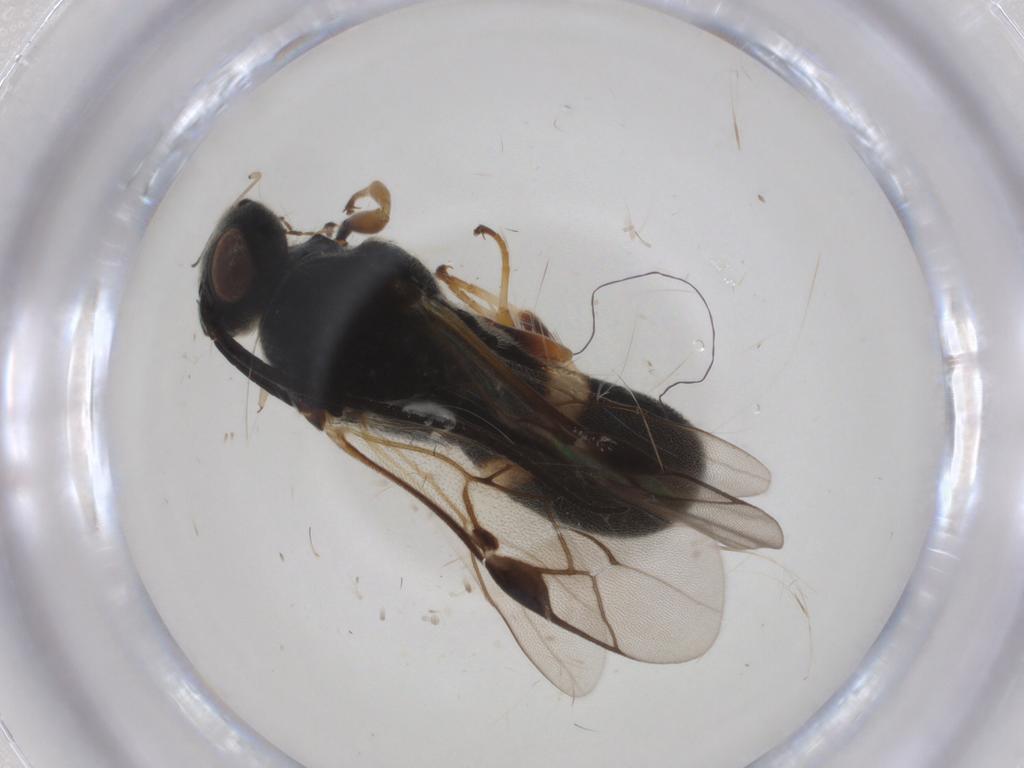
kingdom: Animalia
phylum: Arthropoda
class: Insecta
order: Hymenoptera
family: Braconidae
